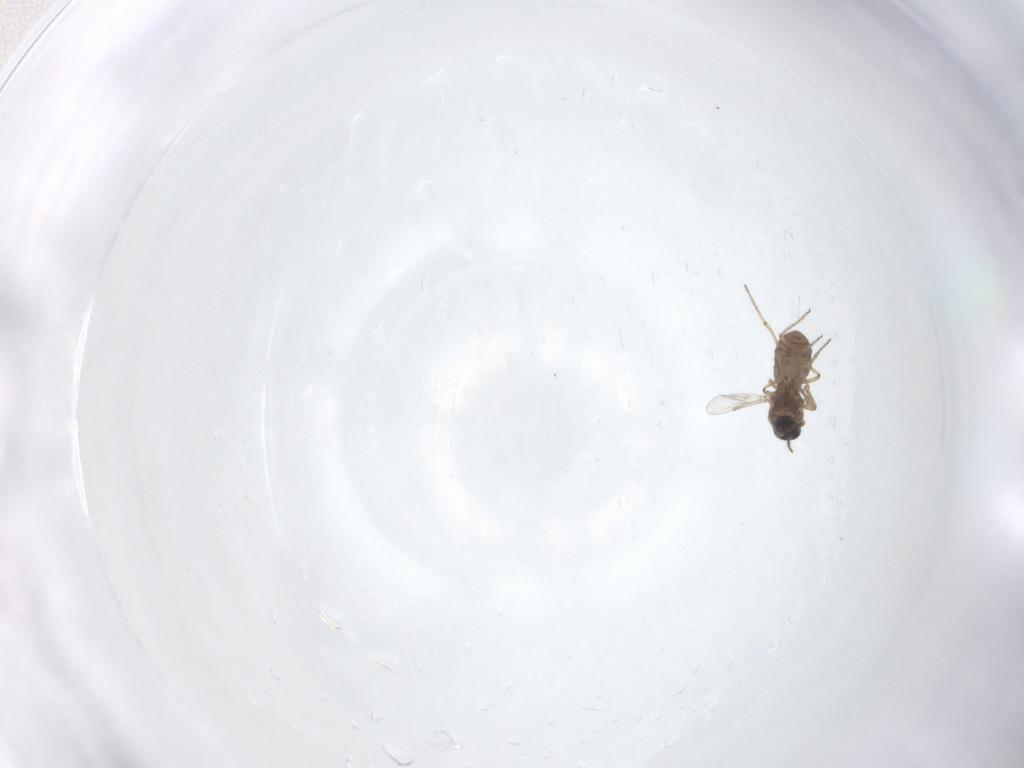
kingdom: Animalia
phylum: Arthropoda
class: Insecta
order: Diptera
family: Ceratopogonidae
